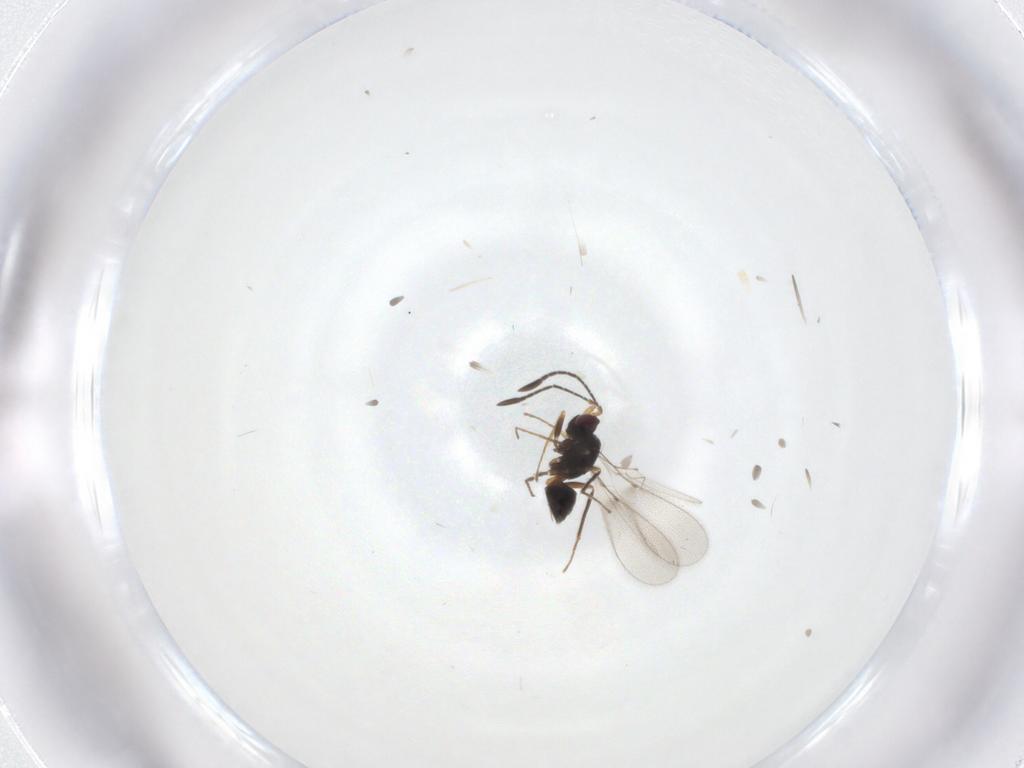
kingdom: Animalia
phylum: Arthropoda
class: Insecta
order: Hymenoptera
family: Mymaridae
